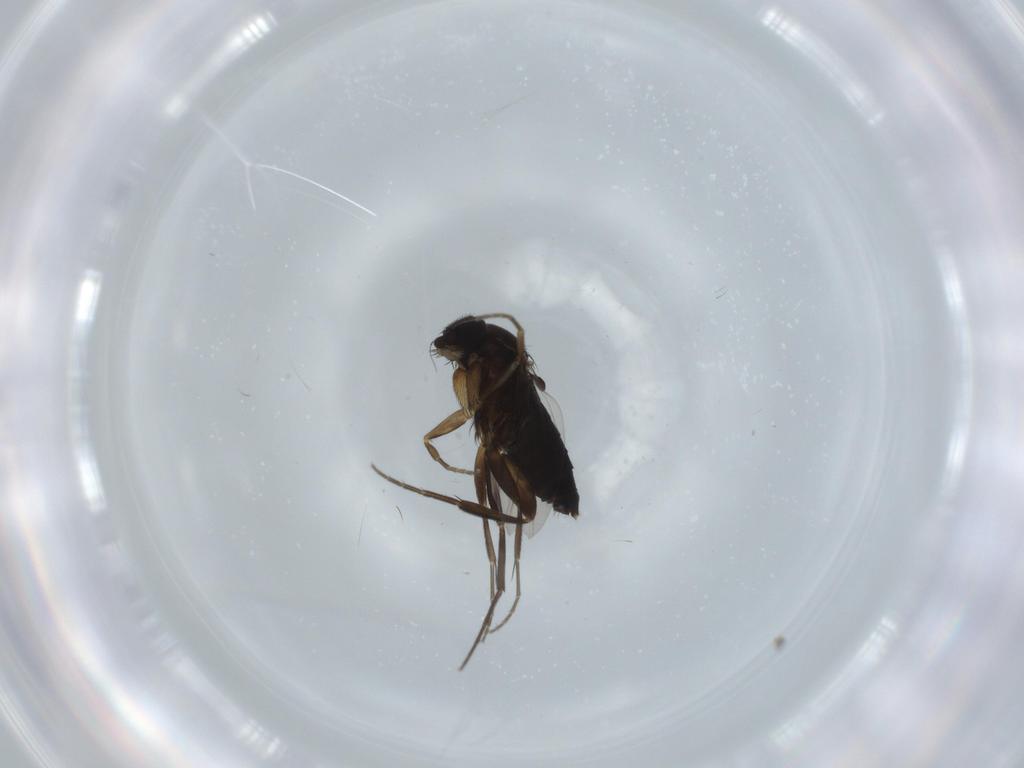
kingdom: Animalia
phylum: Arthropoda
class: Insecta
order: Diptera
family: Phoridae
